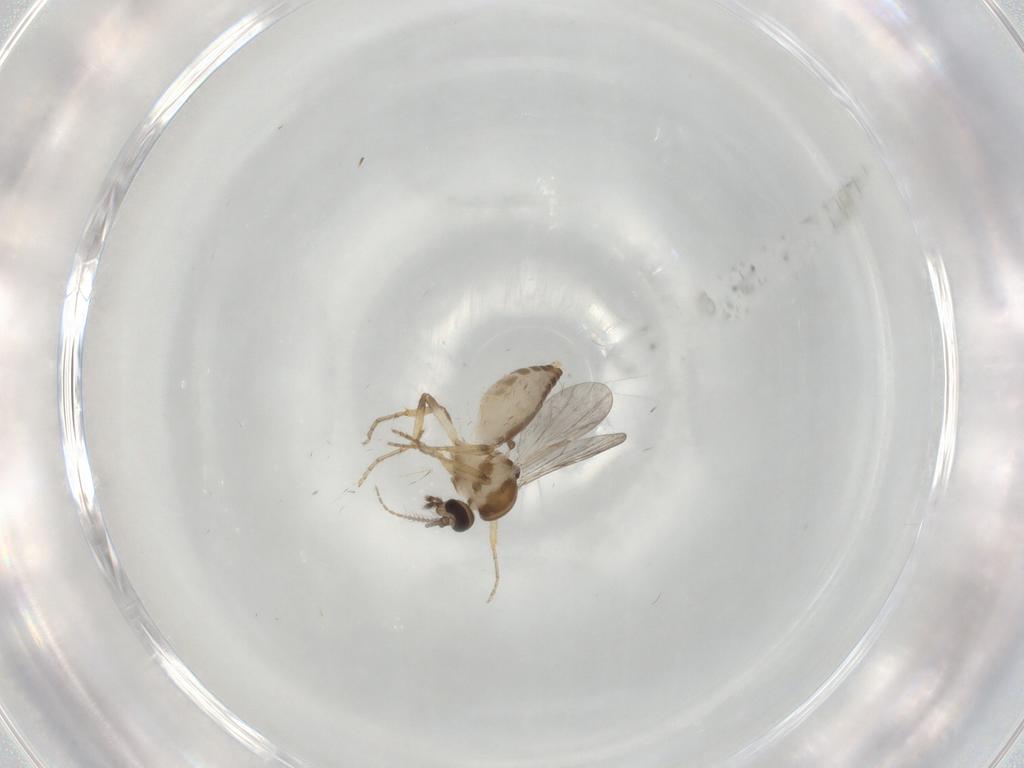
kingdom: Animalia
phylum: Arthropoda
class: Insecta
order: Diptera
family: Ceratopogonidae
